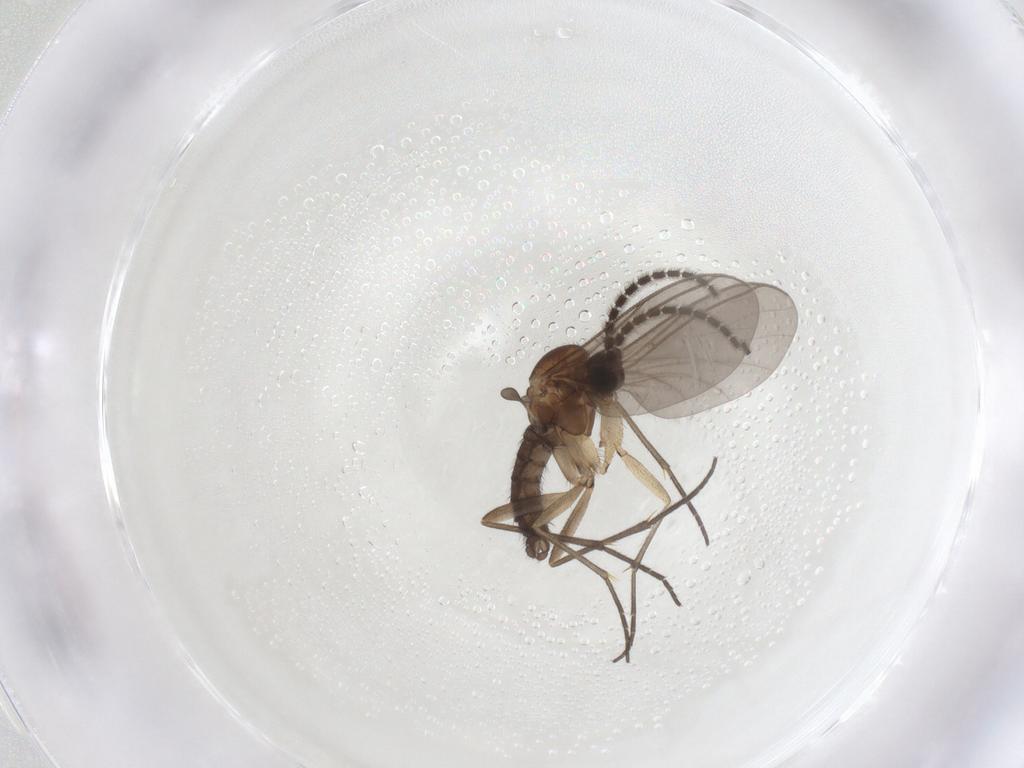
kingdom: Animalia
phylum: Arthropoda
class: Insecta
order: Diptera
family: Sciaridae
